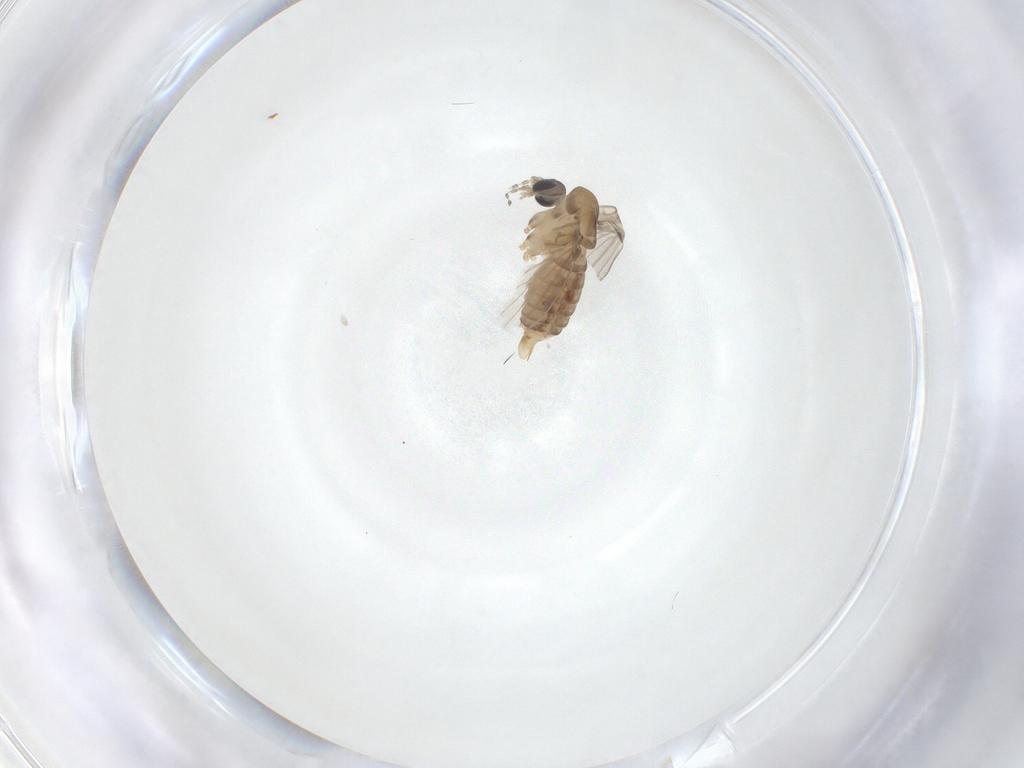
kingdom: Animalia
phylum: Arthropoda
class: Insecta
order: Diptera
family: Psychodidae
